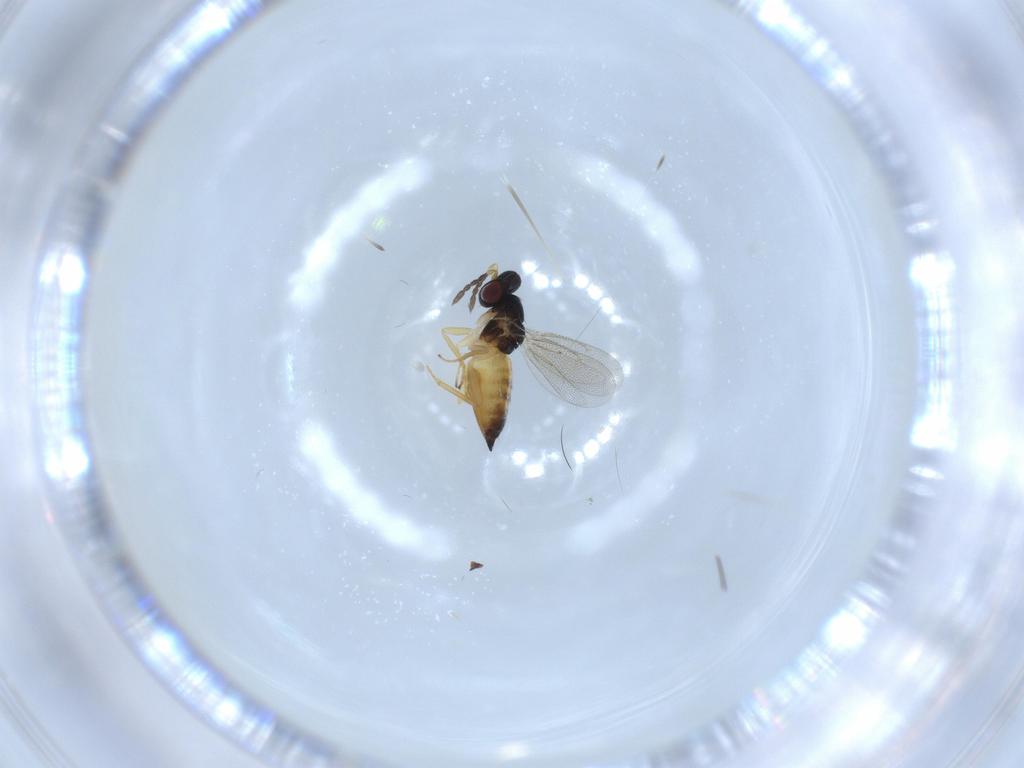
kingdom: Animalia
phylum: Arthropoda
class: Insecta
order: Hymenoptera
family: Eulophidae
